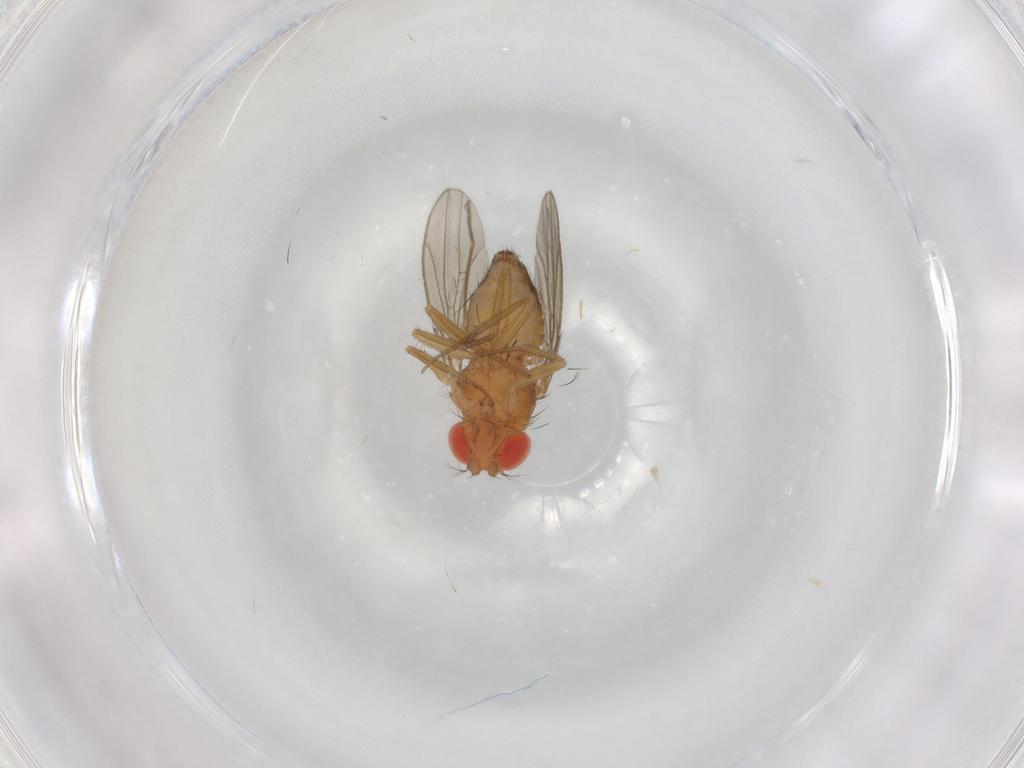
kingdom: Animalia
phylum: Arthropoda
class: Insecta
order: Diptera
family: Drosophilidae
